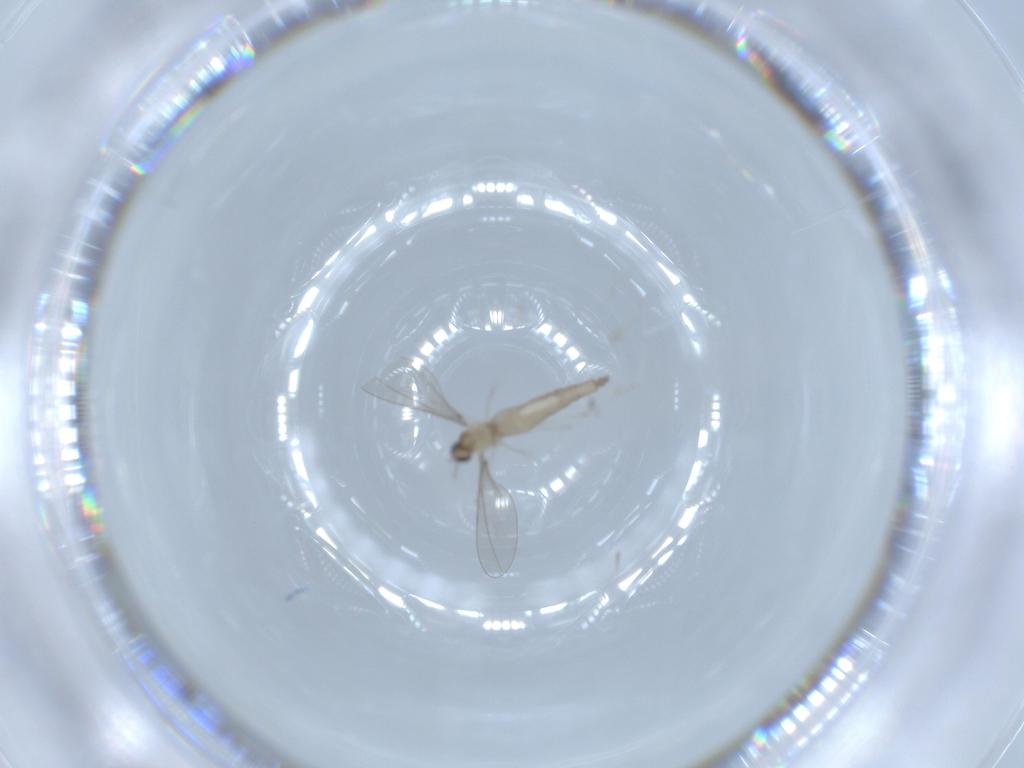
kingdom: Animalia
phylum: Arthropoda
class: Insecta
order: Diptera
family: Cecidomyiidae
